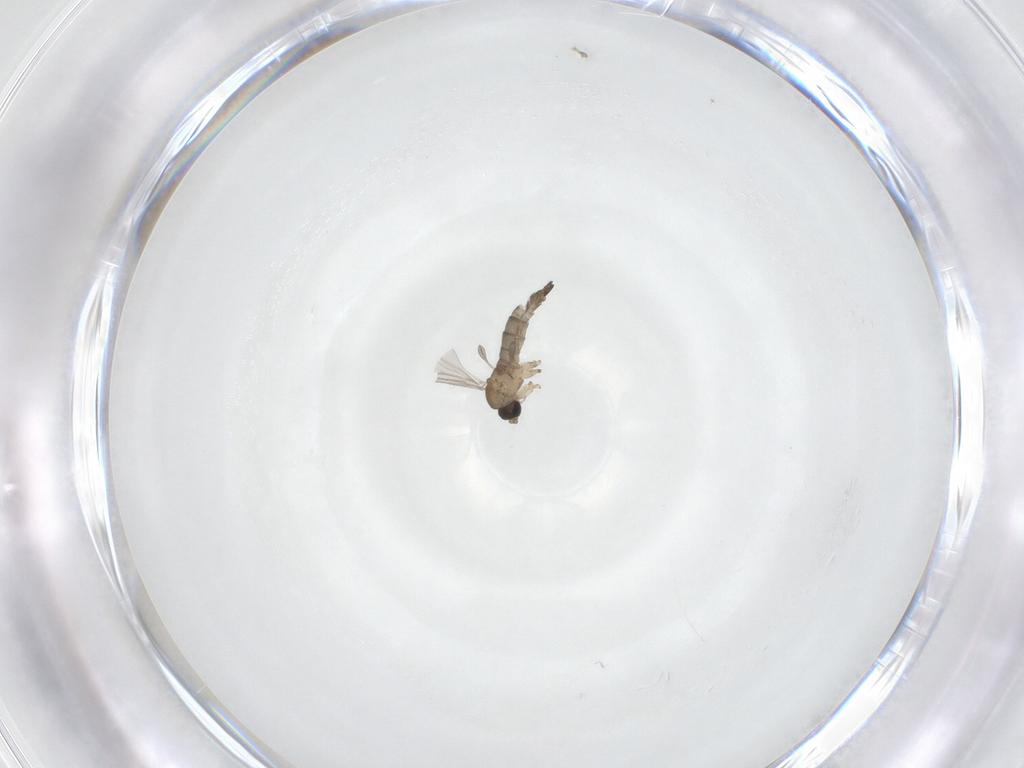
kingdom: Animalia
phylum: Arthropoda
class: Insecta
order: Diptera
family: Sciaridae
